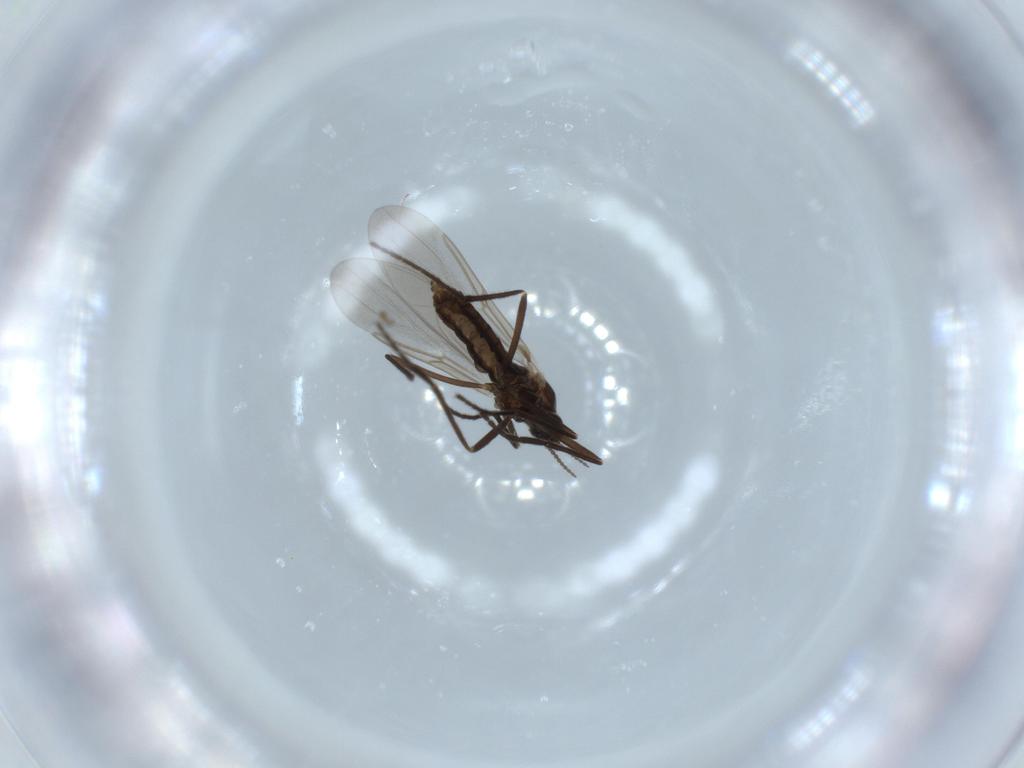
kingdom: Animalia
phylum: Arthropoda
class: Insecta
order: Diptera
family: Cecidomyiidae
